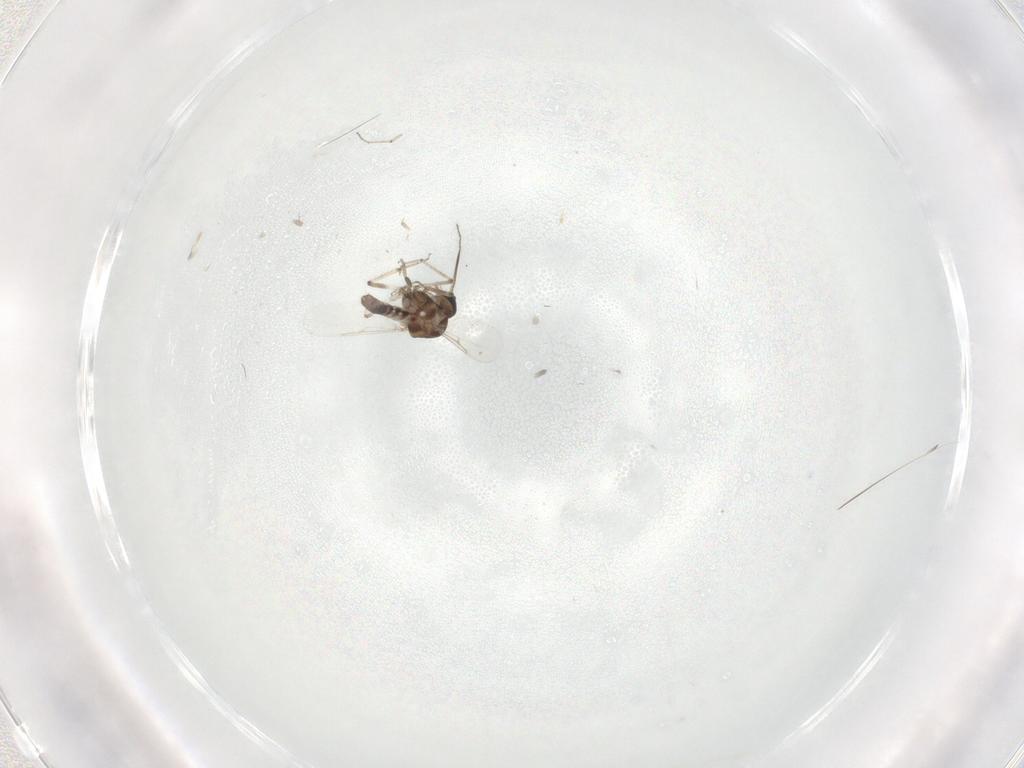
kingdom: Animalia
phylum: Arthropoda
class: Insecta
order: Diptera
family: Ceratopogonidae
